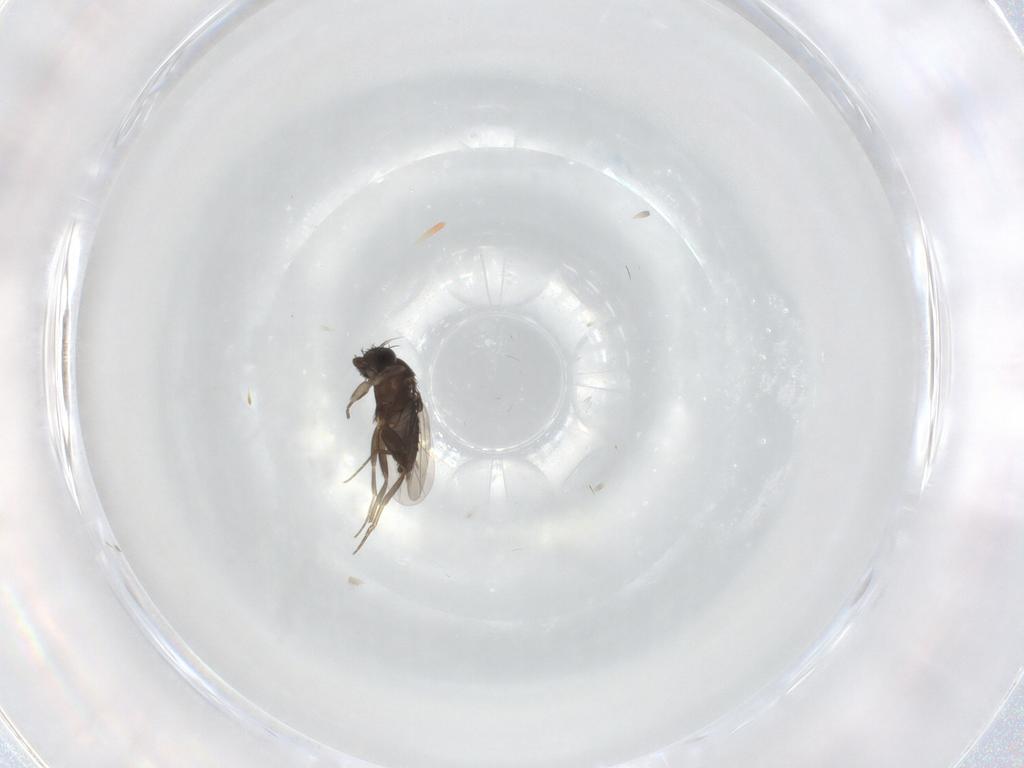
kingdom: Animalia
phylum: Arthropoda
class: Insecta
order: Diptera
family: Phoridae
